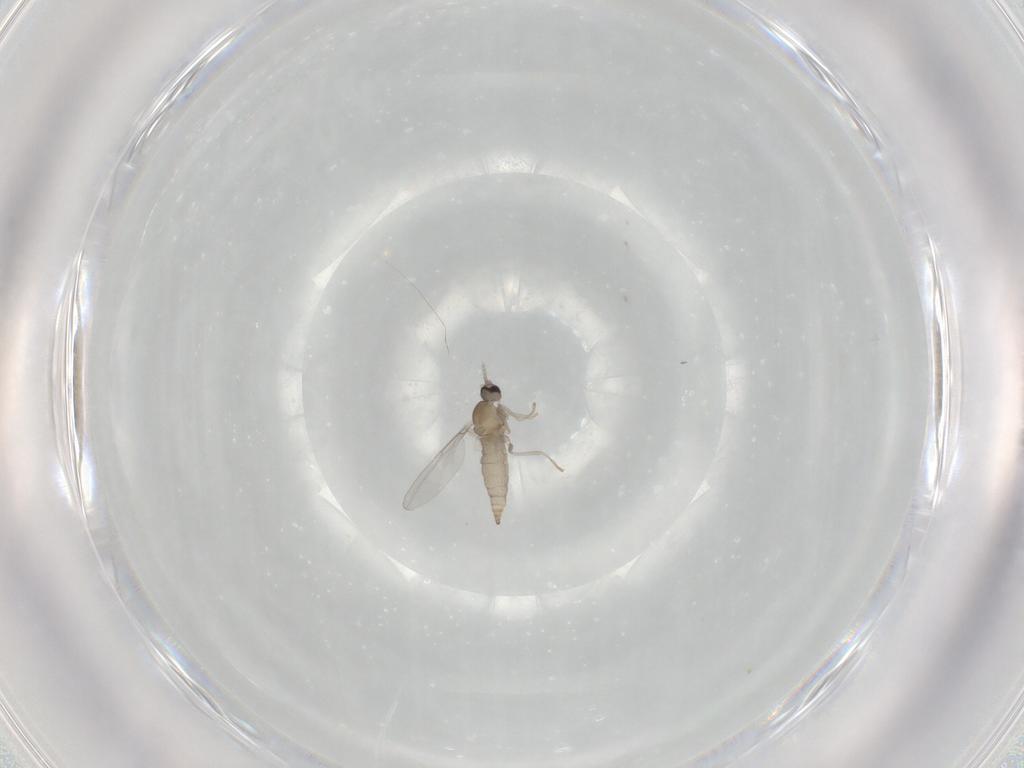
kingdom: Animalia
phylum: Arthropoda
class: Insecta
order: Diptera
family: Cecidomyiidae
